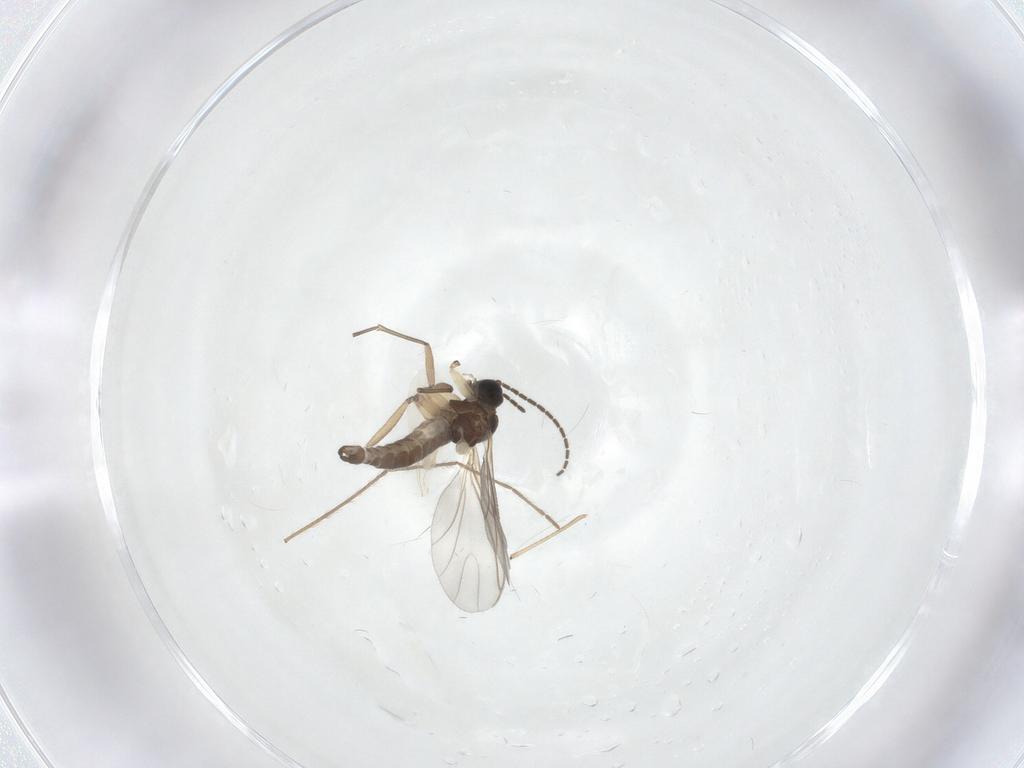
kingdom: Animalia
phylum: Arthropoda
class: Insecta
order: Diptera
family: Sciaridae
